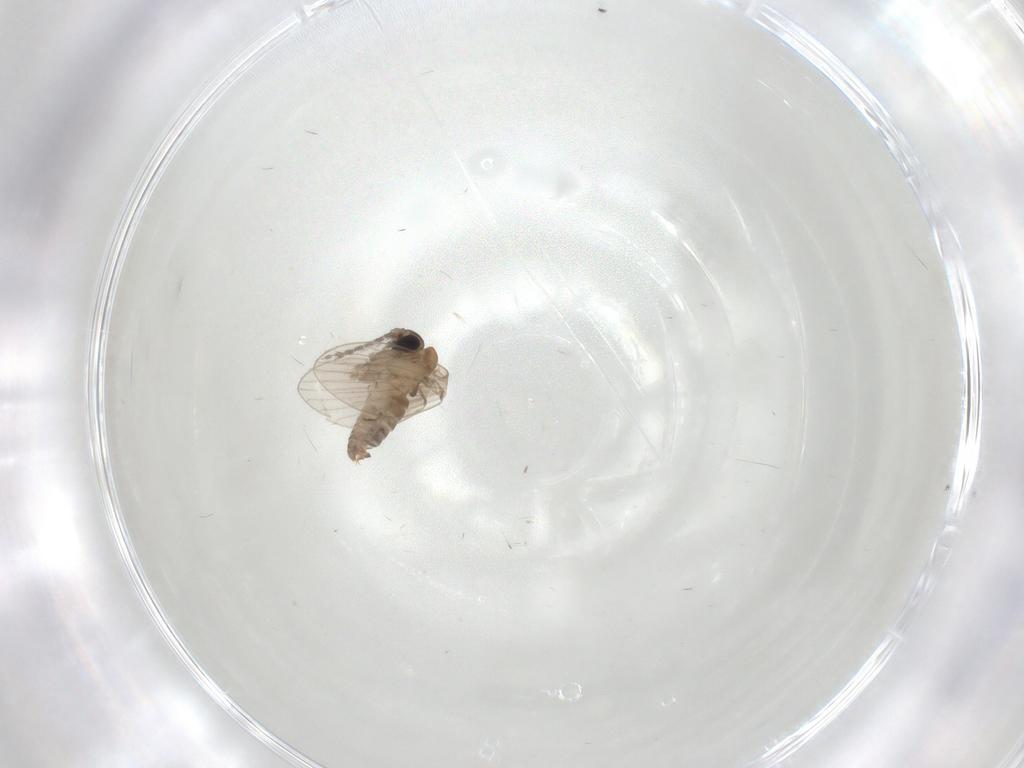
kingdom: Animalia
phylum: Arthropoda
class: Insecta
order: Diptera
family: Psychodidae
